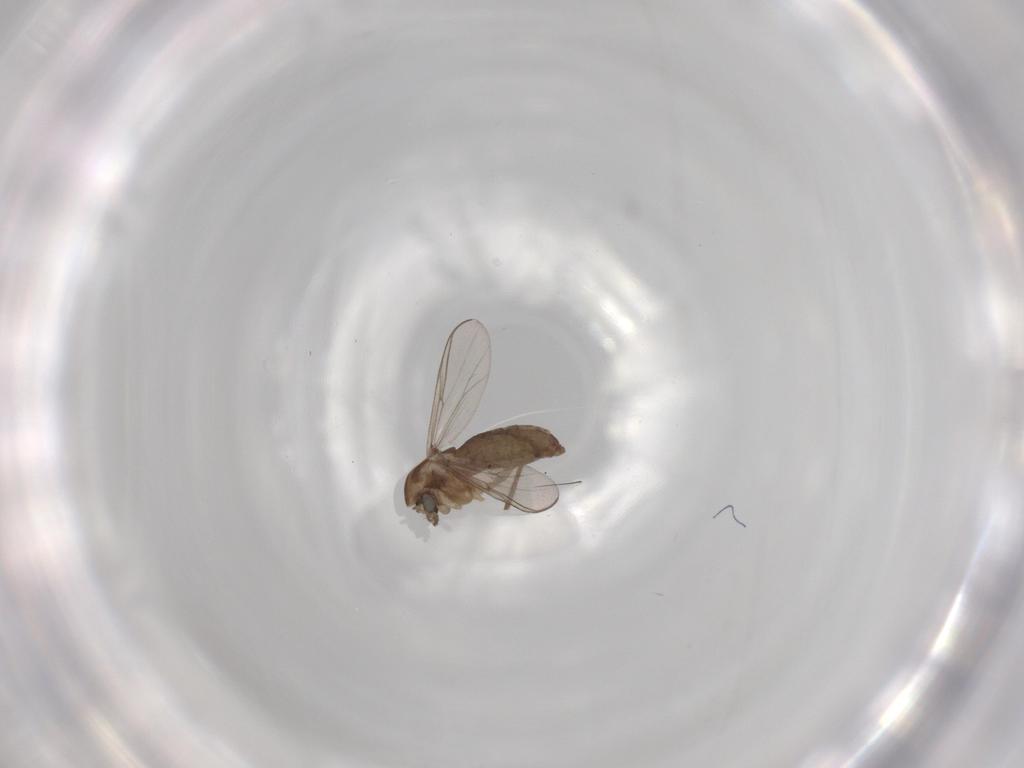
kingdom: Animalia
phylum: Arthropoda
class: Insecta
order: Diptera
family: Chironomidae
